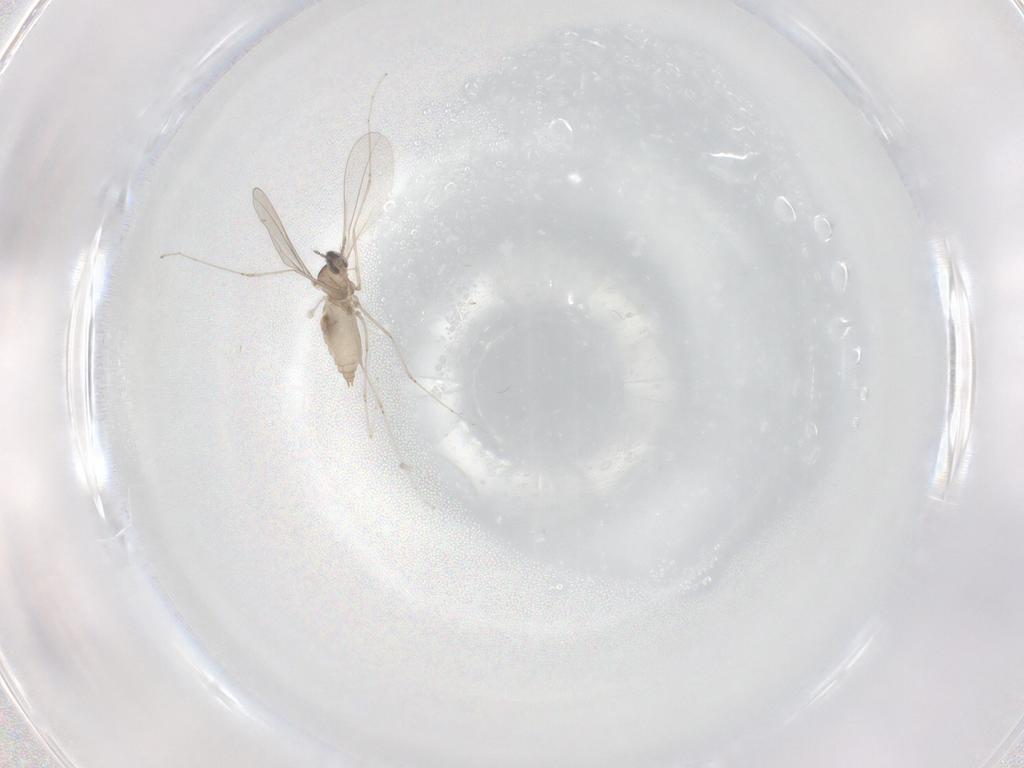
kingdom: Animalia
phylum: Arthropoda
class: Insecta
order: Diptera
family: Cecidomyiidae
